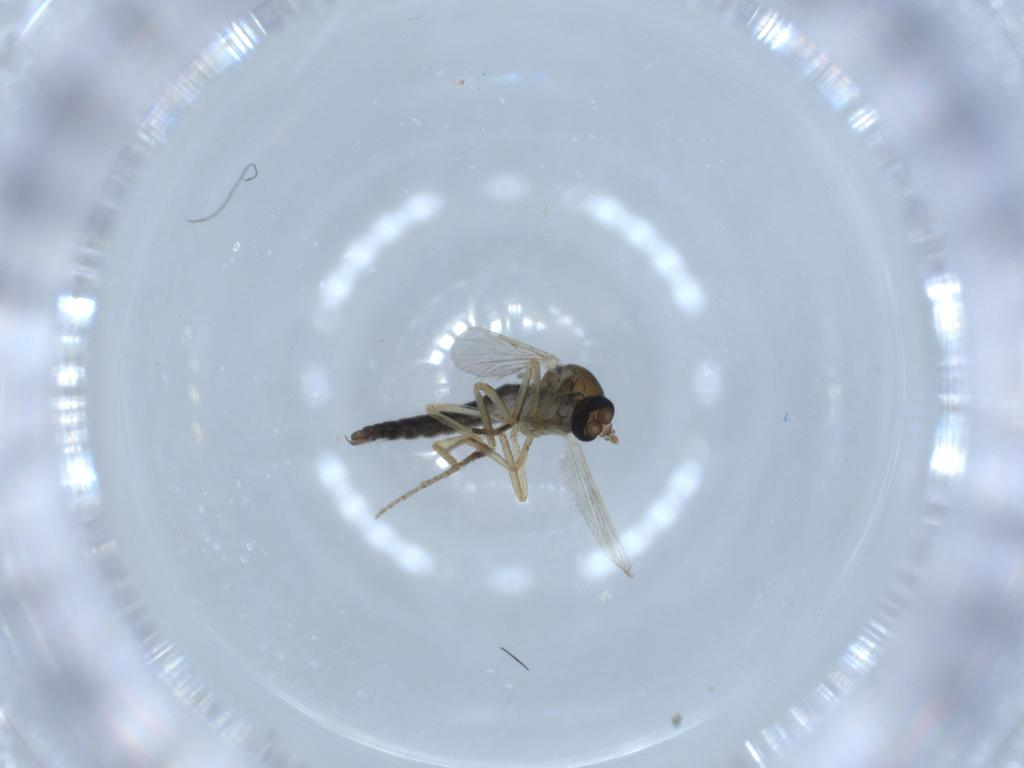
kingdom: Animalia
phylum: Arthropoda
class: Insecta
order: Diptera
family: Ceratopogonidae
